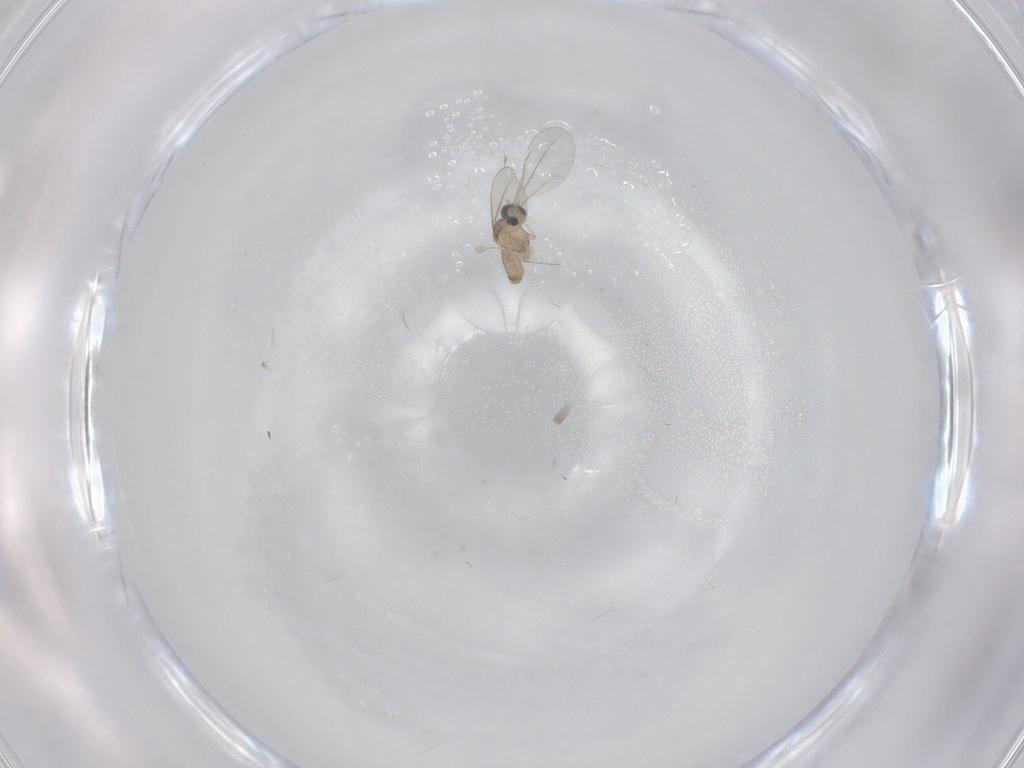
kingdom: Animalia
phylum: Arthropoda
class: Insecta
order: Diptera
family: Cecidomyiidae
